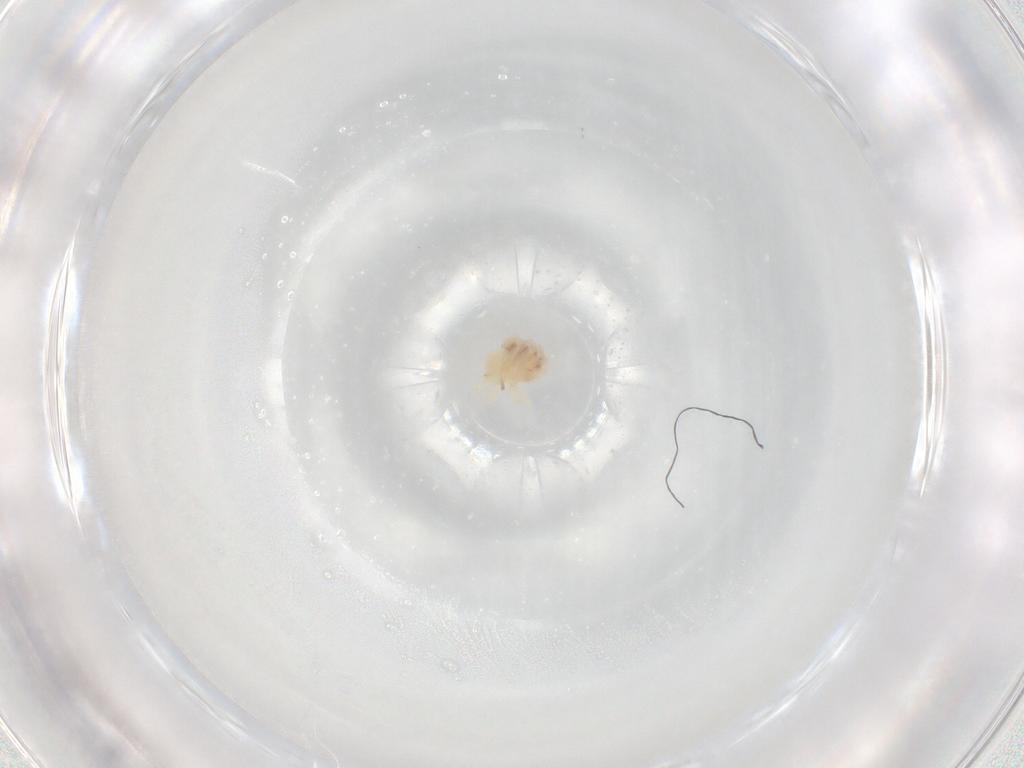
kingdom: Animalia
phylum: Arthropoda
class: Arachnida
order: Trombidiformes
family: Anystidae
